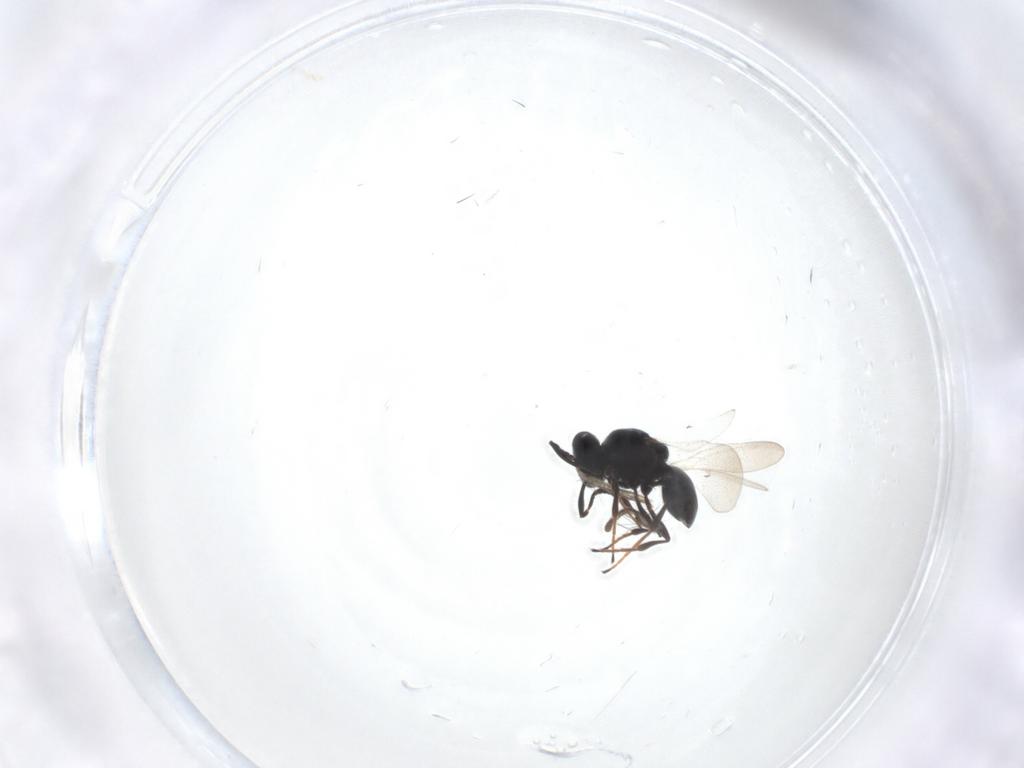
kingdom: Animalia
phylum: Arthropoda
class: Insecta
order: Hymenoptera
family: Platygastridae
